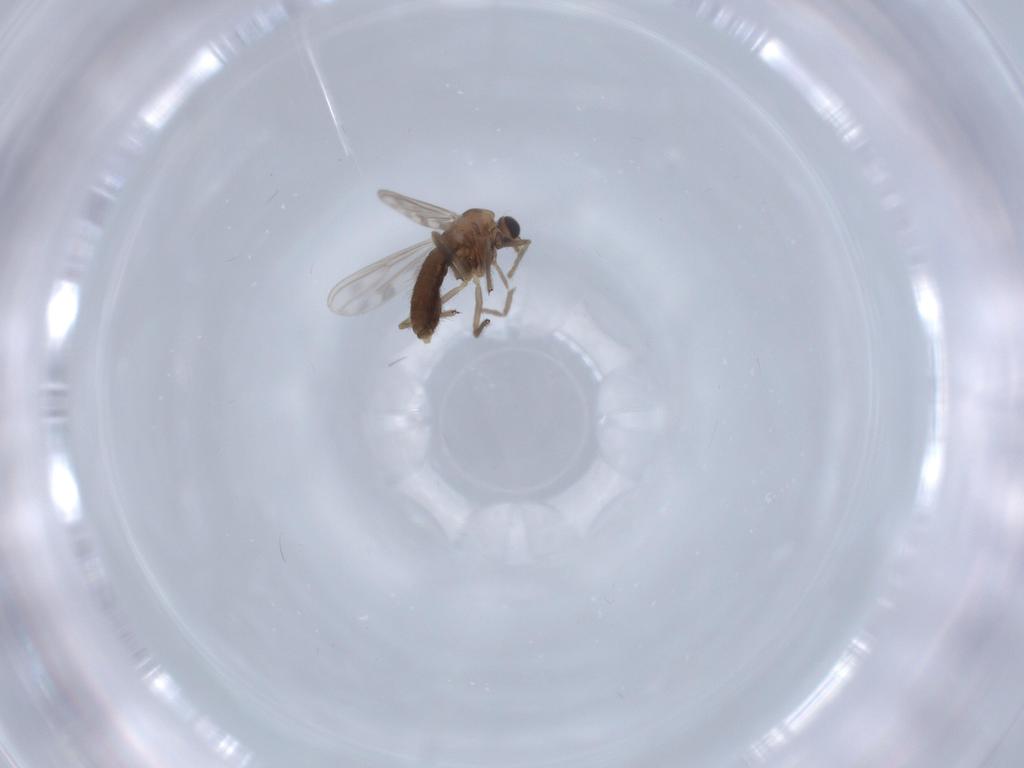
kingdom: Animalia
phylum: Arthropoda
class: Insecta
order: Diptera
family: Chironomidae
